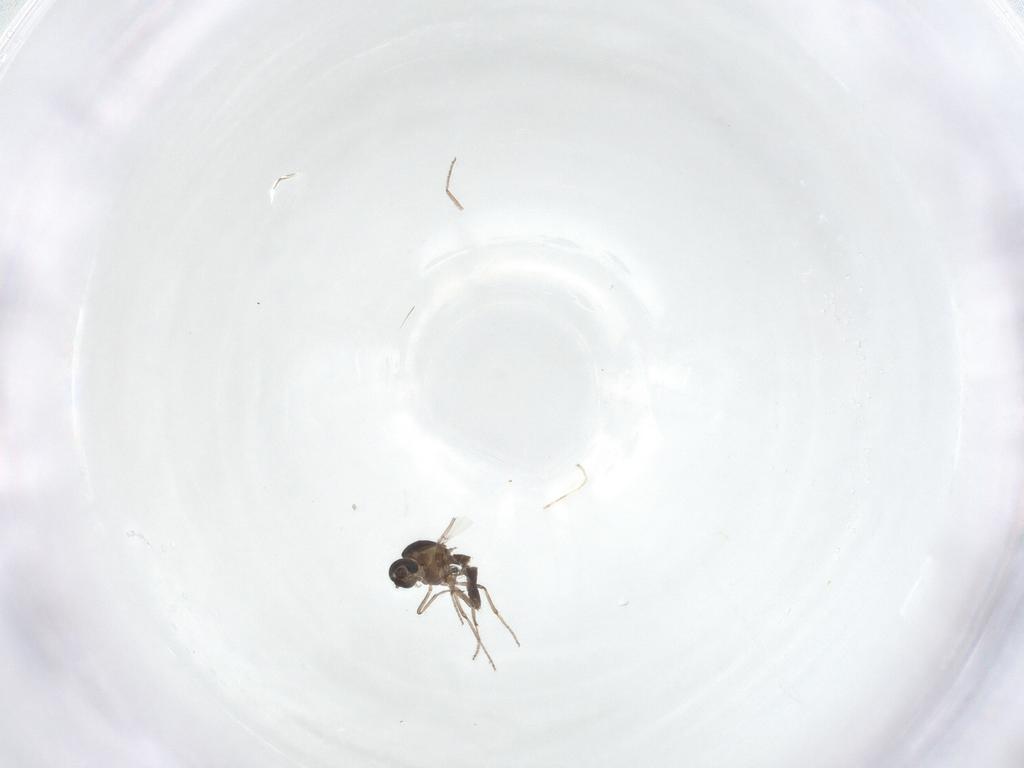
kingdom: Animalia
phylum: Arthropoda
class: Insecta
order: Diptera
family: Ceratopogonidae
